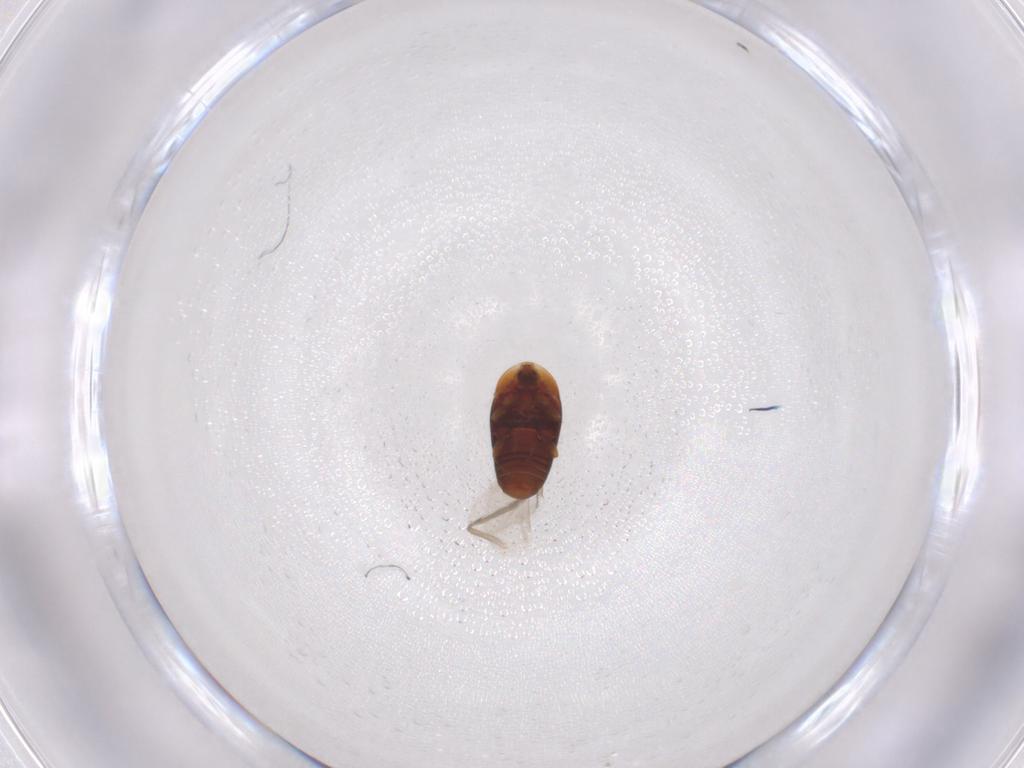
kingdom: Animalia
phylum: Arthropoda
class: Insecta
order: Coleoptera
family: Corylophidae
